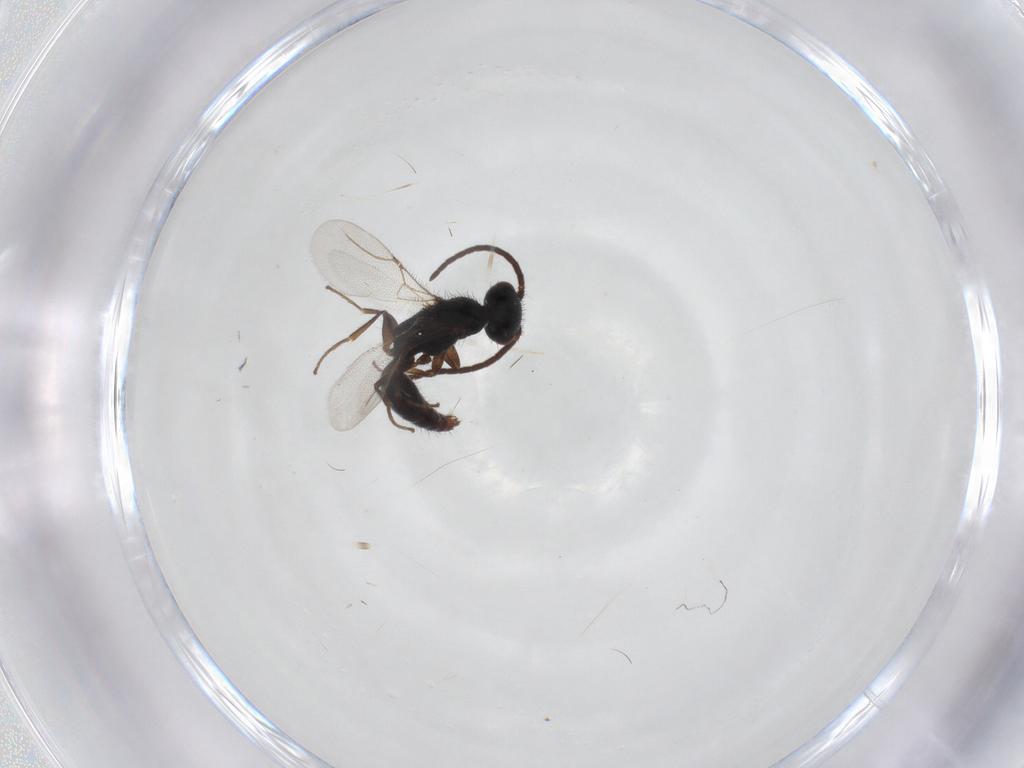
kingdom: Animalia
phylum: Arthropoda
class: Insecta
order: Hymenoptera
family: Bethylidae
